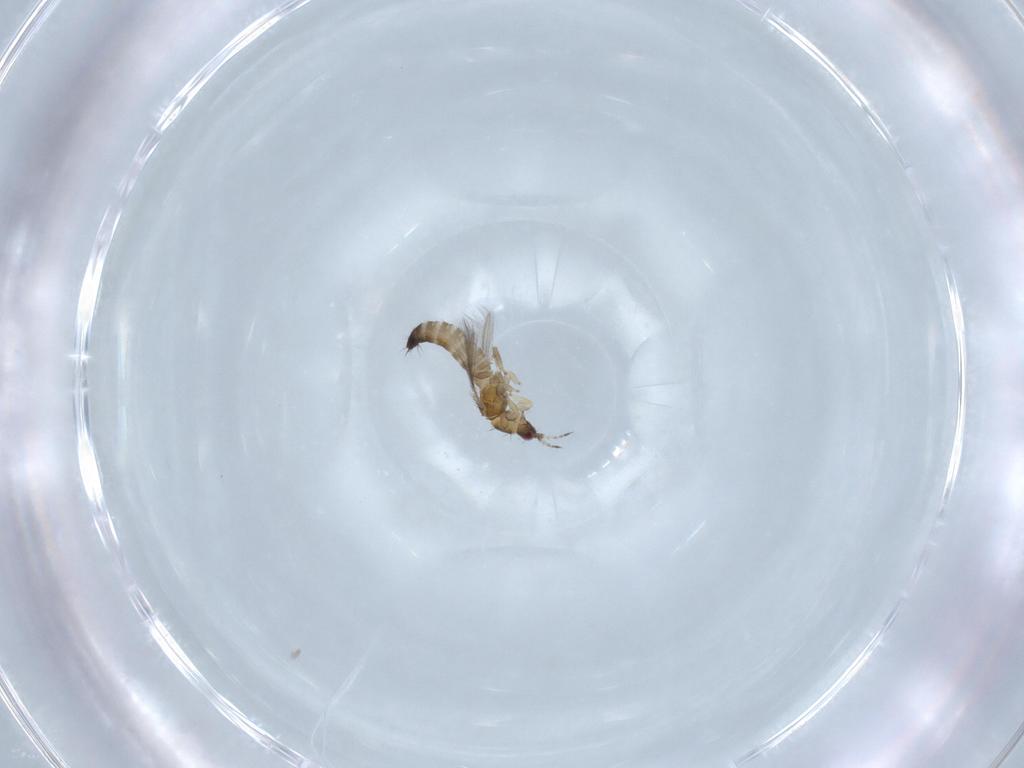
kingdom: Animalia
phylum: Arthropoda
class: Insecta
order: Thysanoptera
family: Thripidae
